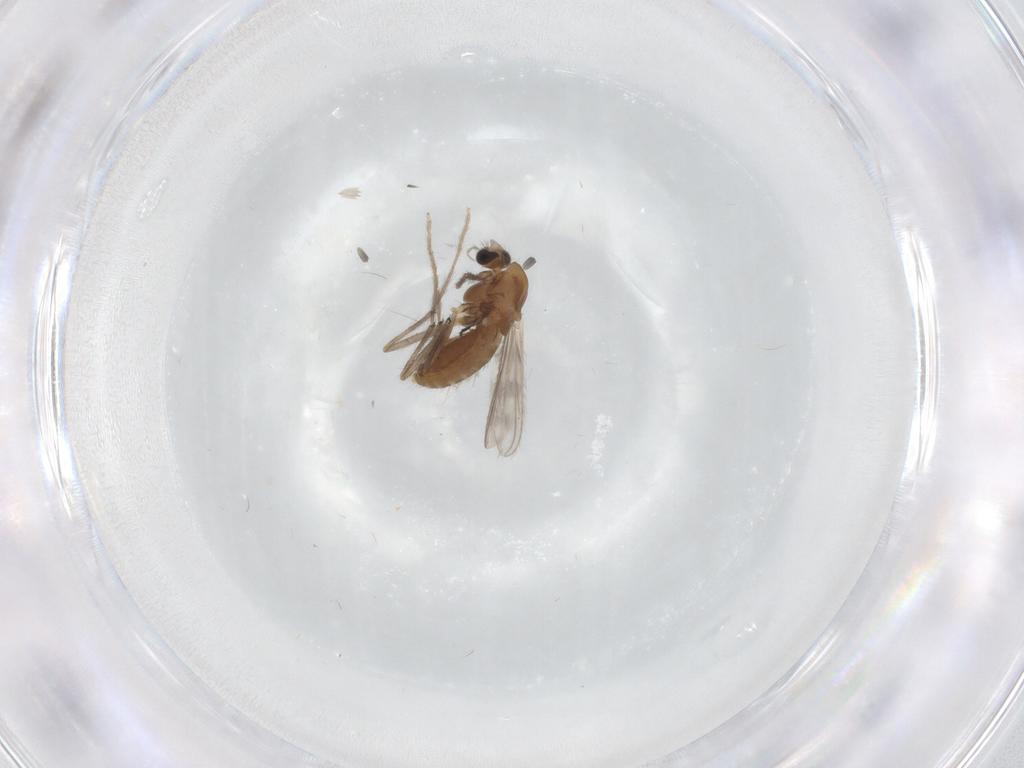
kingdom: Animalia
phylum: Arthropoda
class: Insecta
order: Diptera
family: Chironomidae
